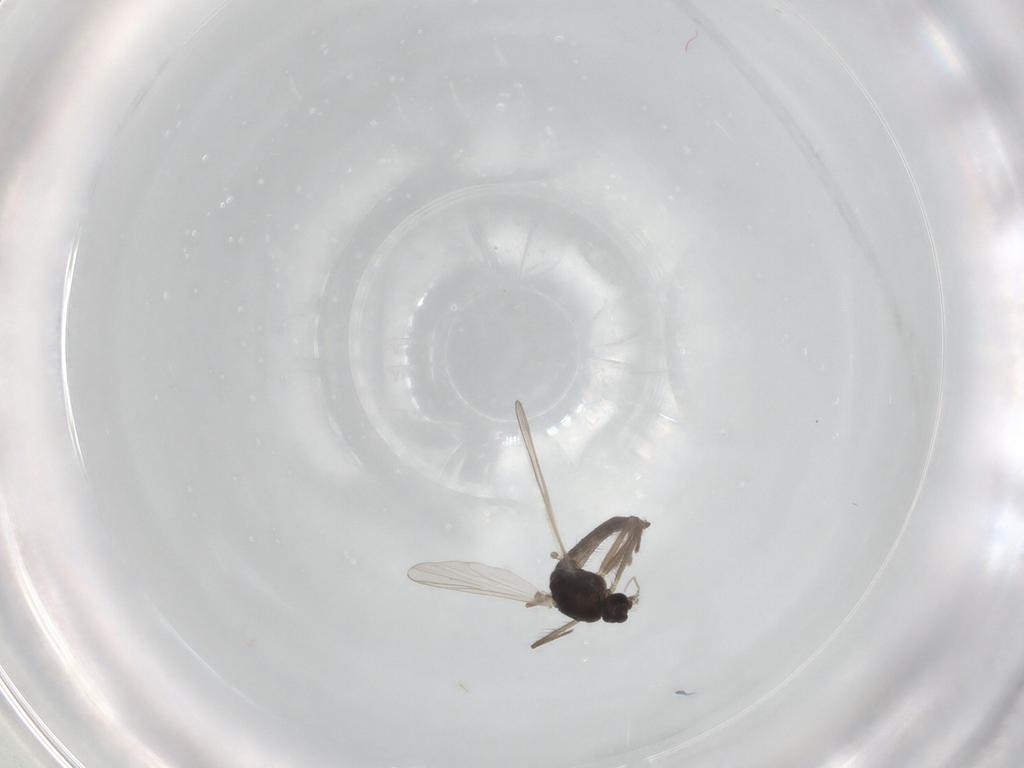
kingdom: Animalia
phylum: Arthropoda
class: Insecta
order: Diptera
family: Chironomidae
